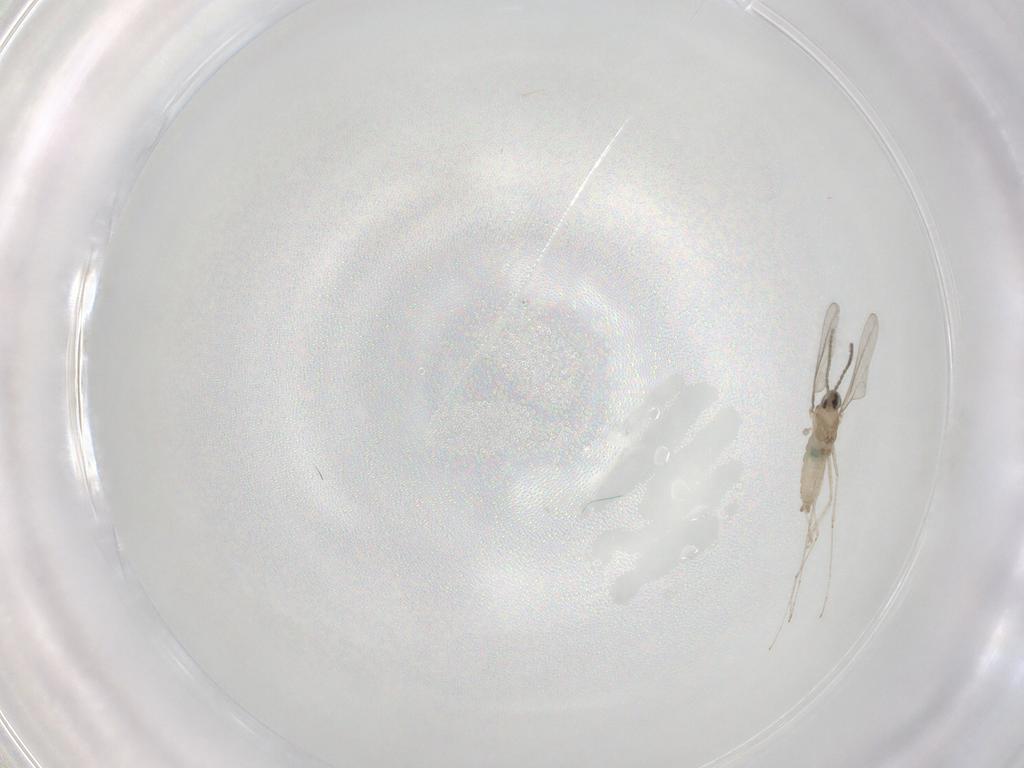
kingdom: Animalia
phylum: Arthropoda
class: Insecta
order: Diptera
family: Cecidomyiidae
